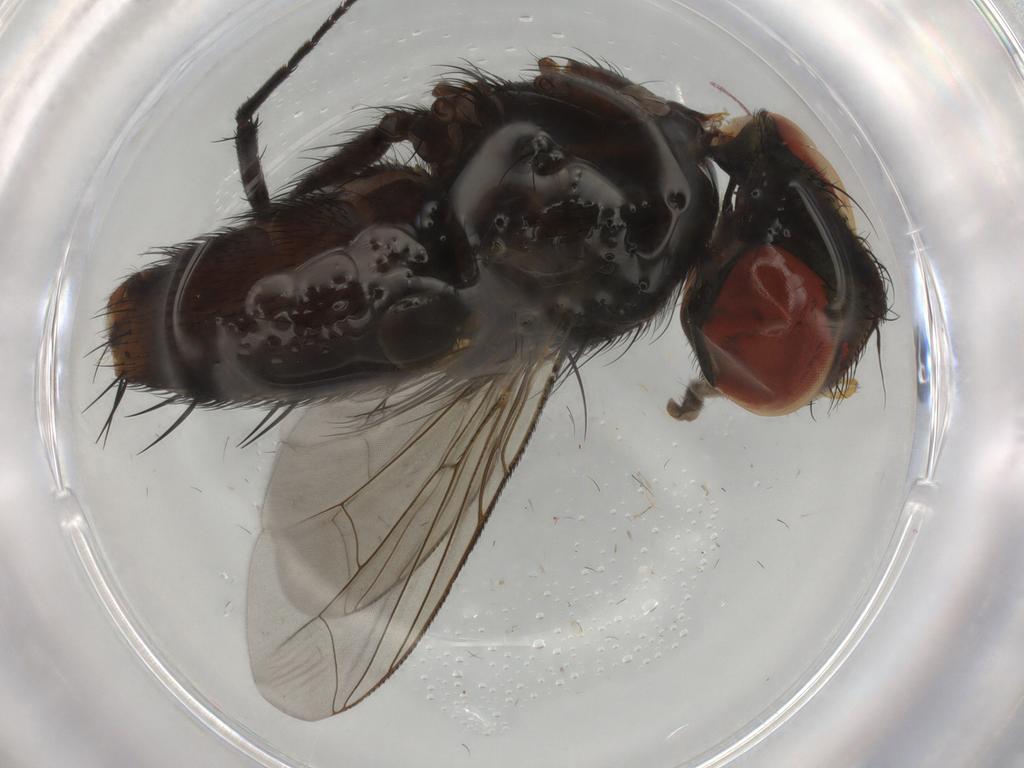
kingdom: Animalia
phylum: Arthropoda
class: Insecta
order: Diptera
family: Sarcophagidae
